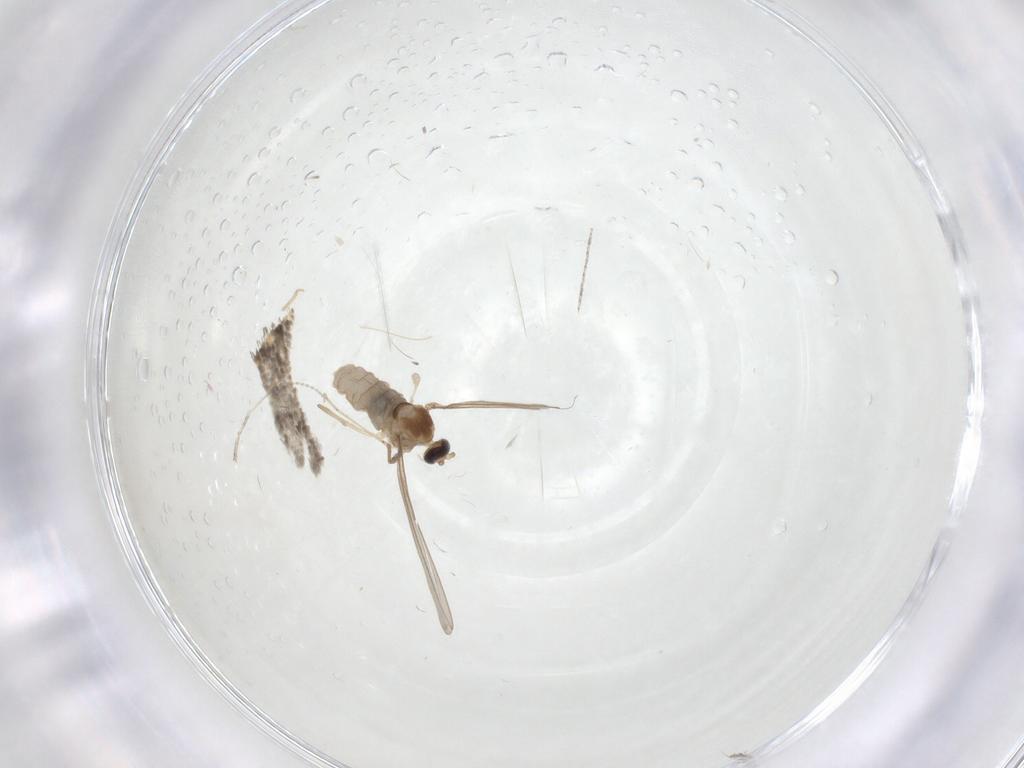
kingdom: Animalia
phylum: Arthropoda
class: Insecta
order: Diptera
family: Cecidomyiidae
